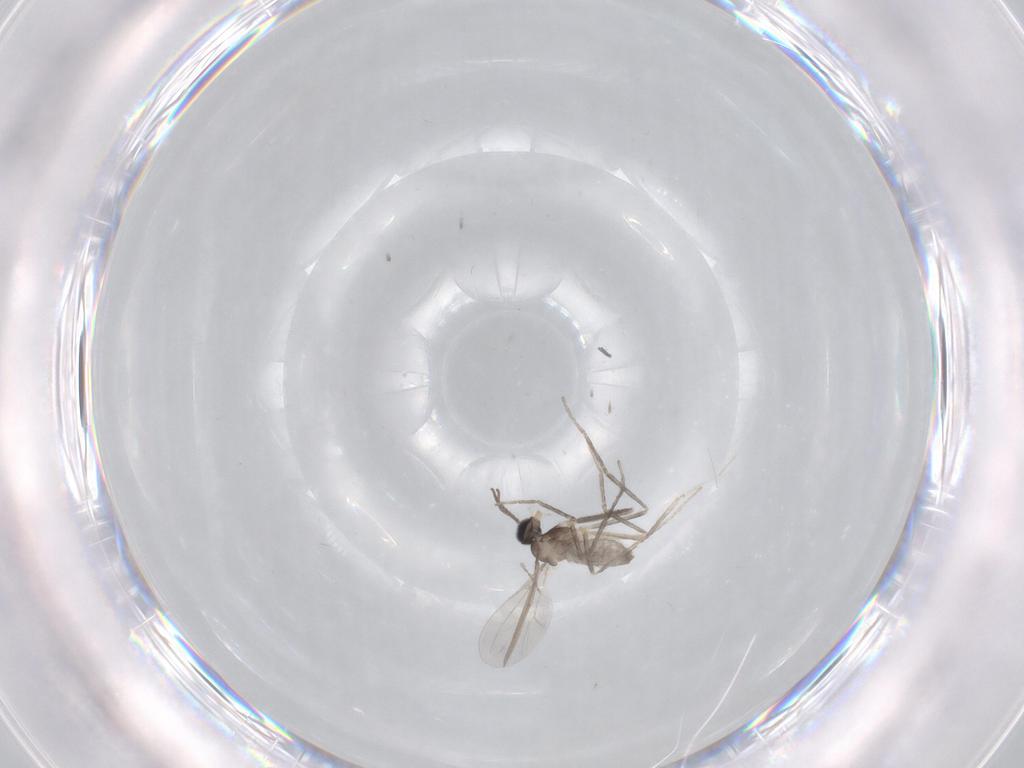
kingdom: Animalia
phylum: Arthropoda
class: Insecta
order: Diptera
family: Cecidomyiidae
